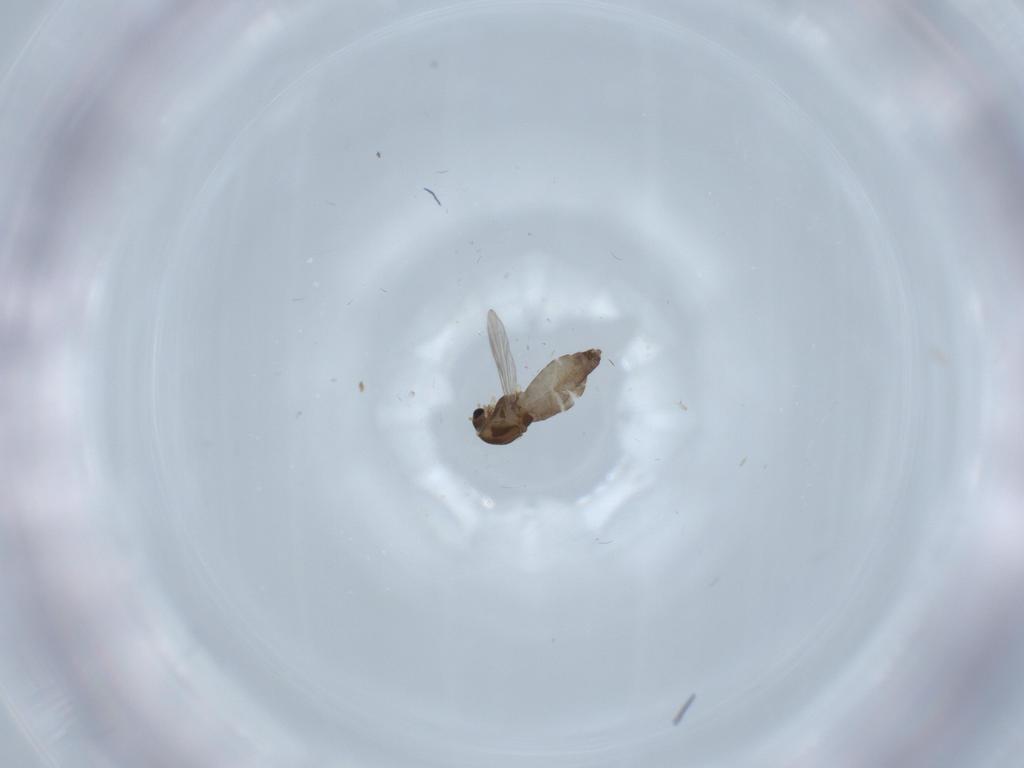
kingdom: Animalia
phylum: Arthropoda
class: Insecta
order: Diptera
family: Chironomidae
